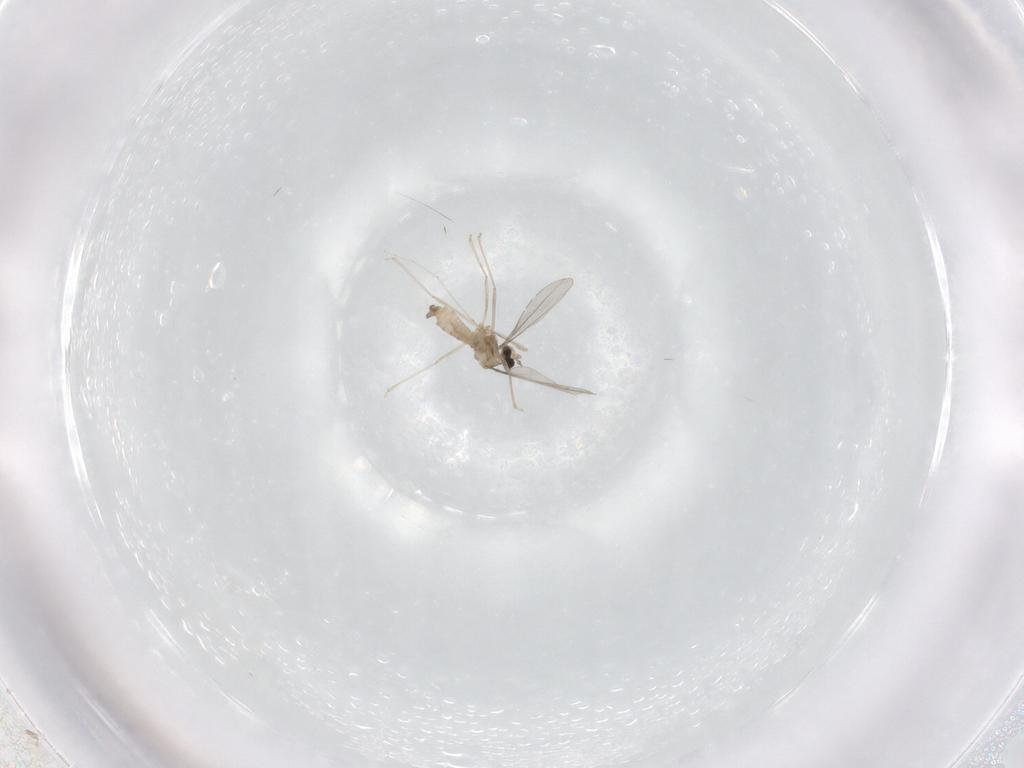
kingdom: Animalia
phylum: Arthropoda
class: Insecta
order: Diptera
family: Cecidomyiidae
